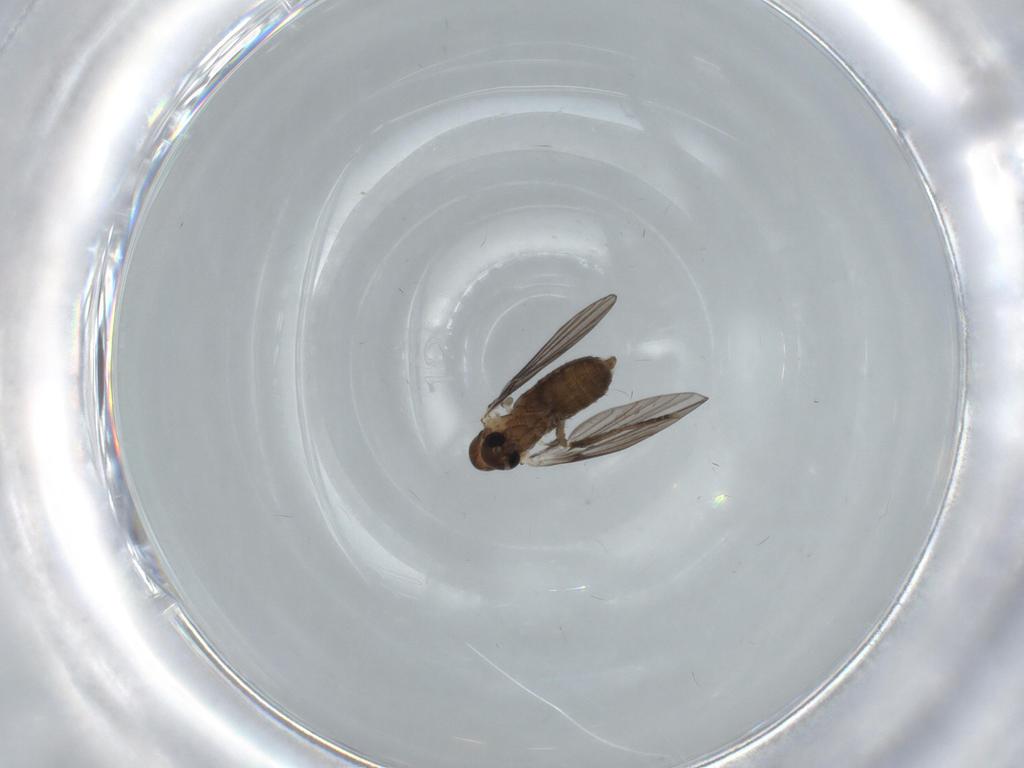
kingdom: Animalia
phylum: Arthropoda
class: Insecta
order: Diptera
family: Psychodidae
